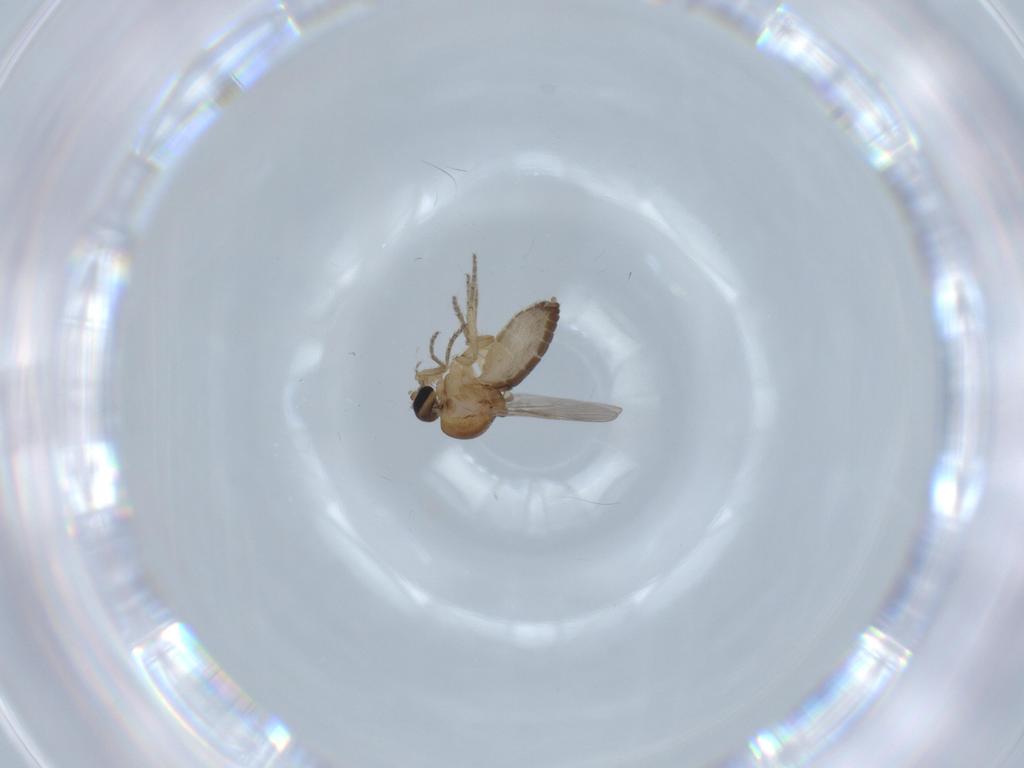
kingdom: Animalia
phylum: Arthropoda
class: Insecta
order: Diptera
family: Ceratopogonidae
